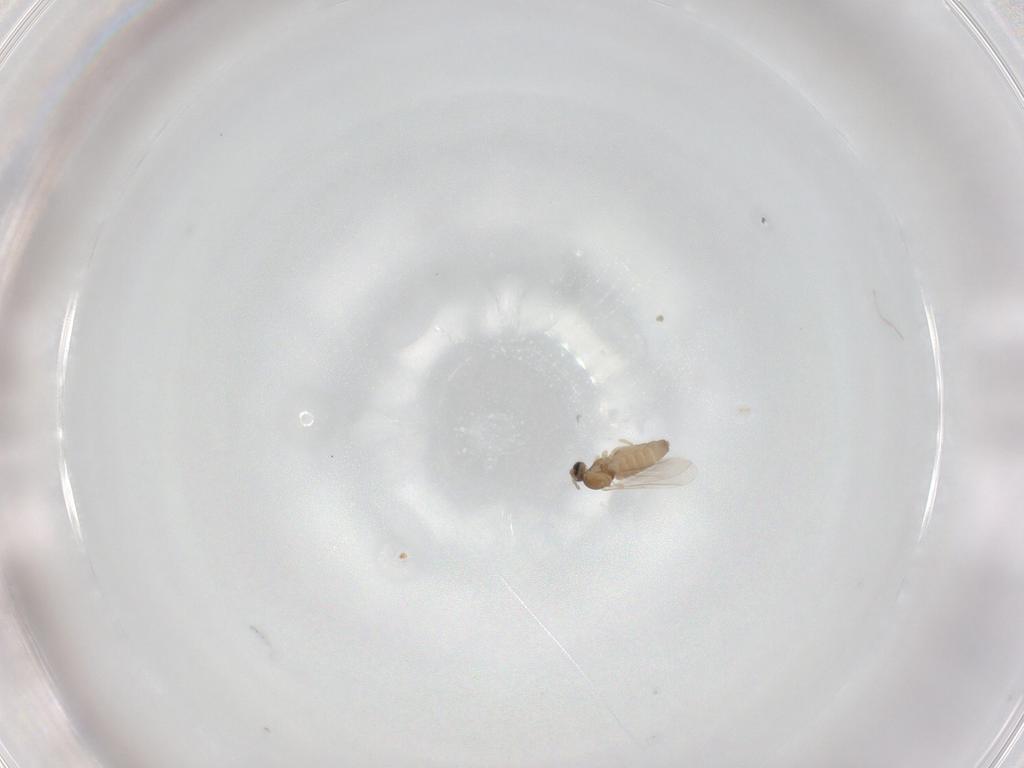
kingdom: Animalia
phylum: Arthropoda
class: Insecta
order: Diptera
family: Cecidomyiidae
